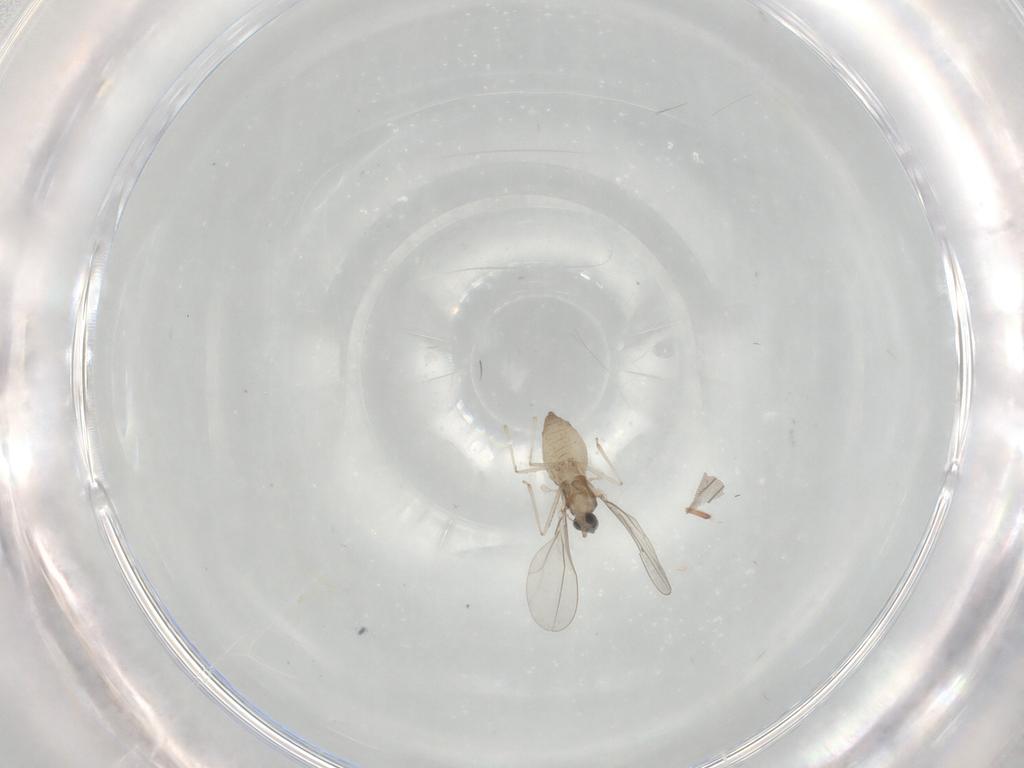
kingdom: Animalia
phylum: Arthropoda
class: Insecta
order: Diptera
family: Cecidomyiidae
